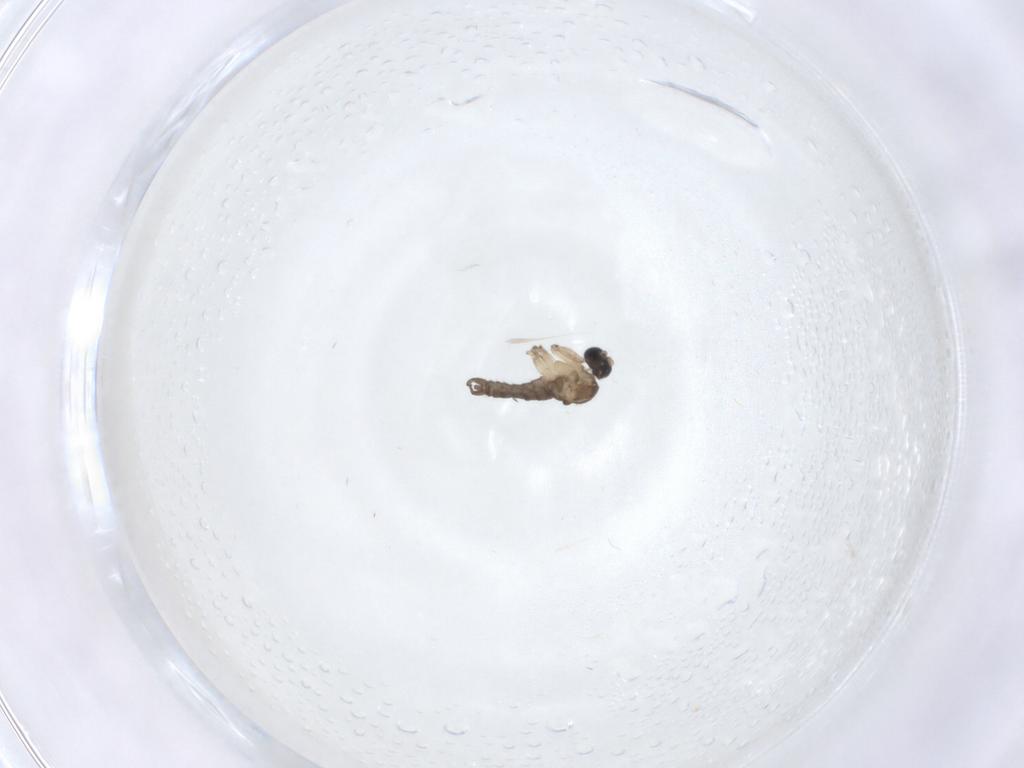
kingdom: Animalia
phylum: Arthropoda
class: Insecta
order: Diptera
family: Sciaridae
